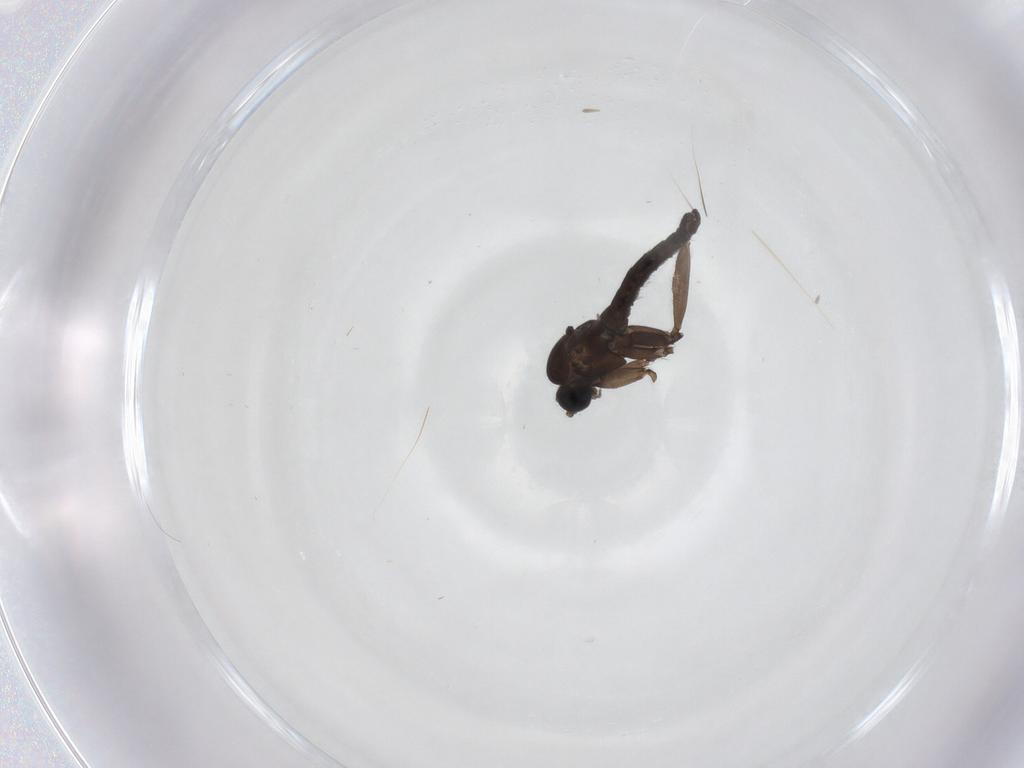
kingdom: Animalia
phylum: Arthropoda
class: Insecta
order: Diptera
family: Sciaridae
